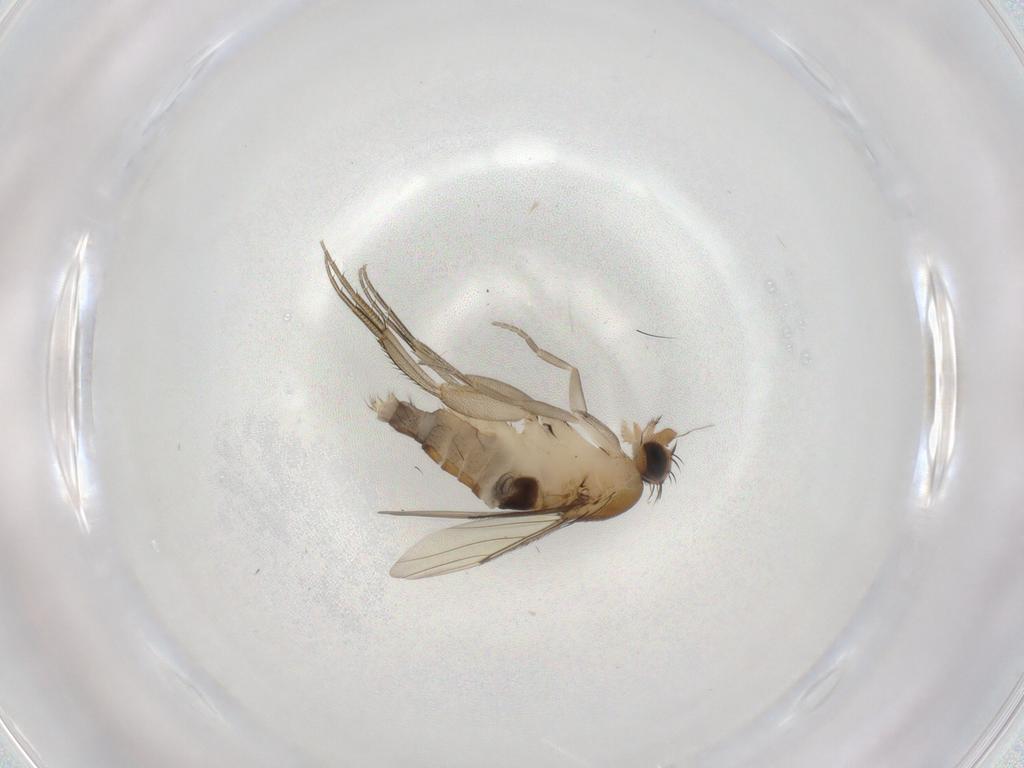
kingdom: Animalia
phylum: Arthropoda
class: Insecta
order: Diptera
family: Phoridae
